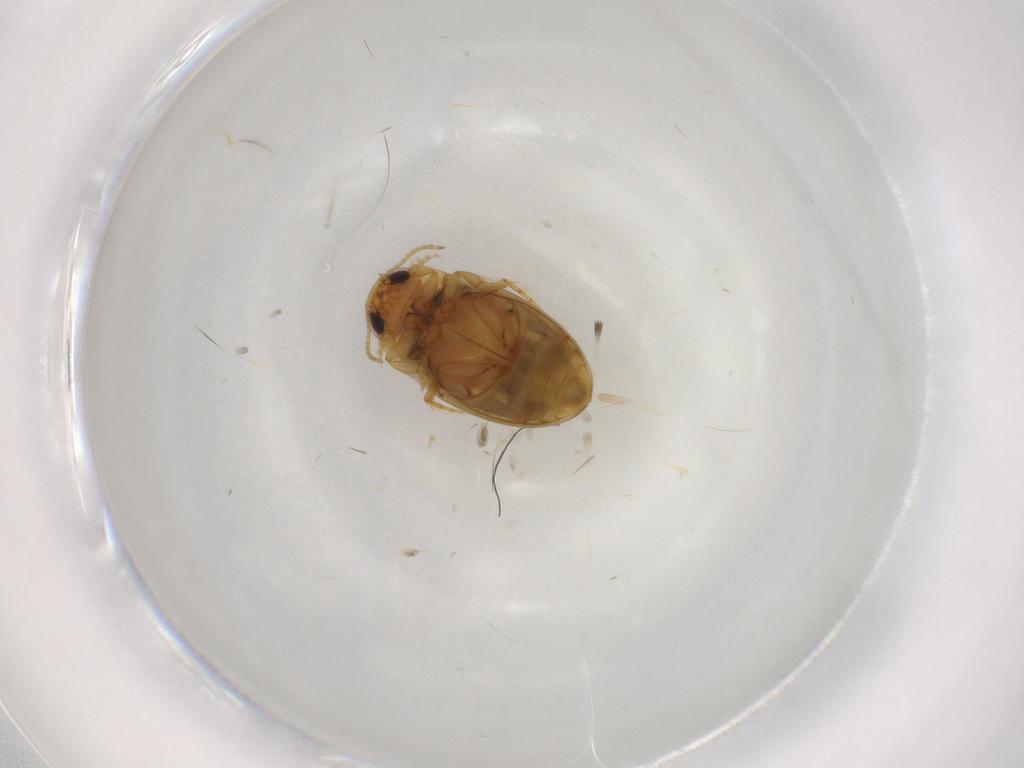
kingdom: Animalia
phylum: Arthropoda
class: Insecta
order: Coleoptera
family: Dytiscidae
